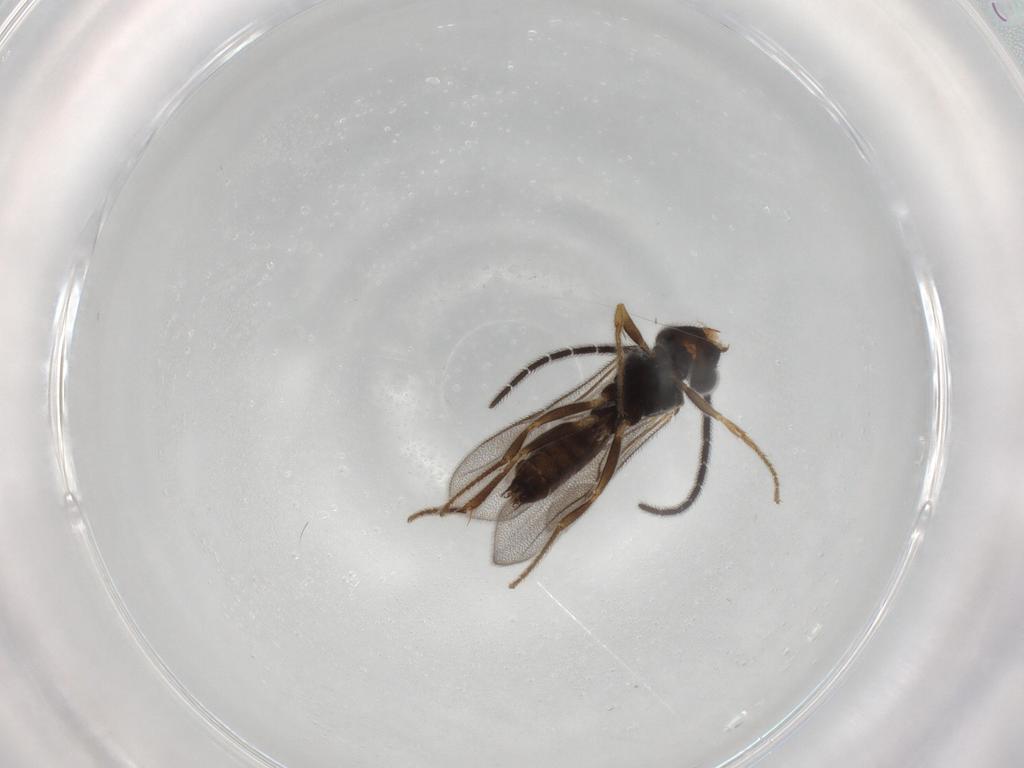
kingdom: Animalia
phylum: Arthropoda
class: Insecta
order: Hymenoptera
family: Dryinidae
